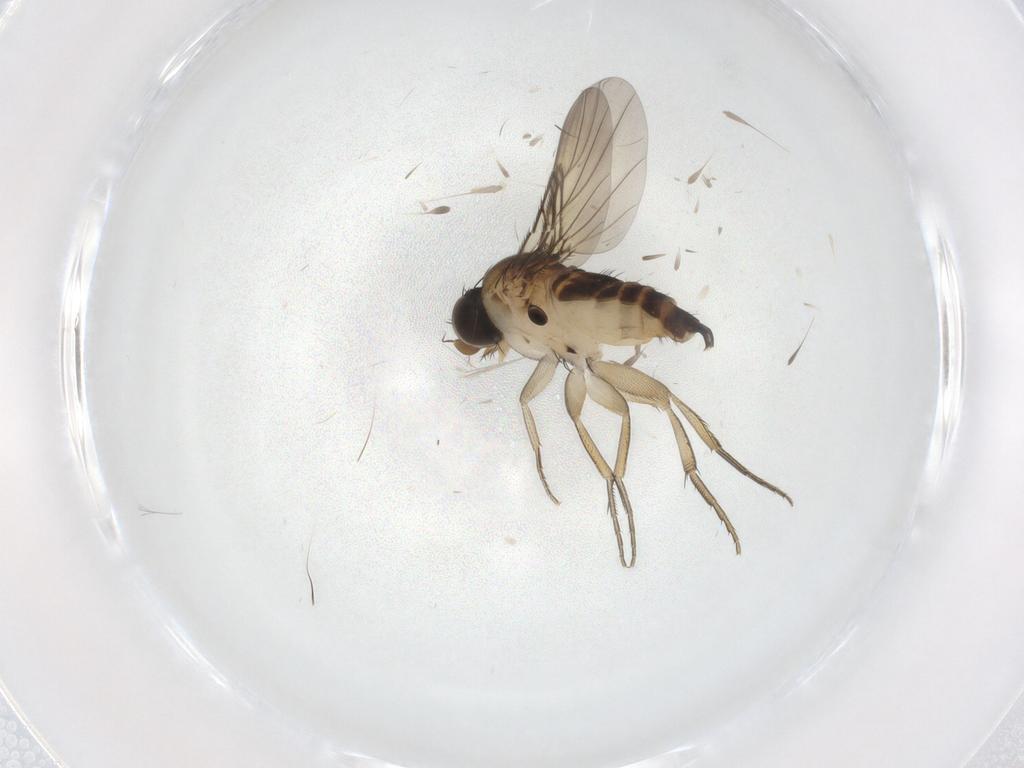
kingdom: Animalia
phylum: Arthropoda
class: Insecta
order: Diptera
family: Phoridae
